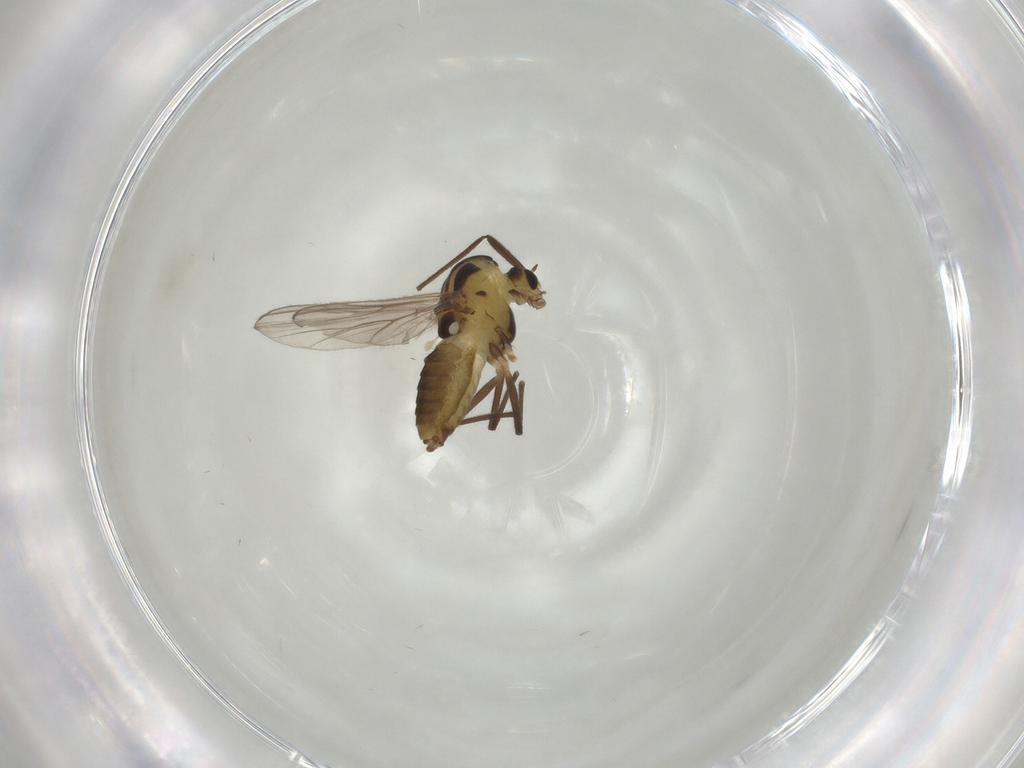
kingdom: Animalia
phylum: Arthropoda
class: Insecta
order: Diptera
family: Chironomidae
